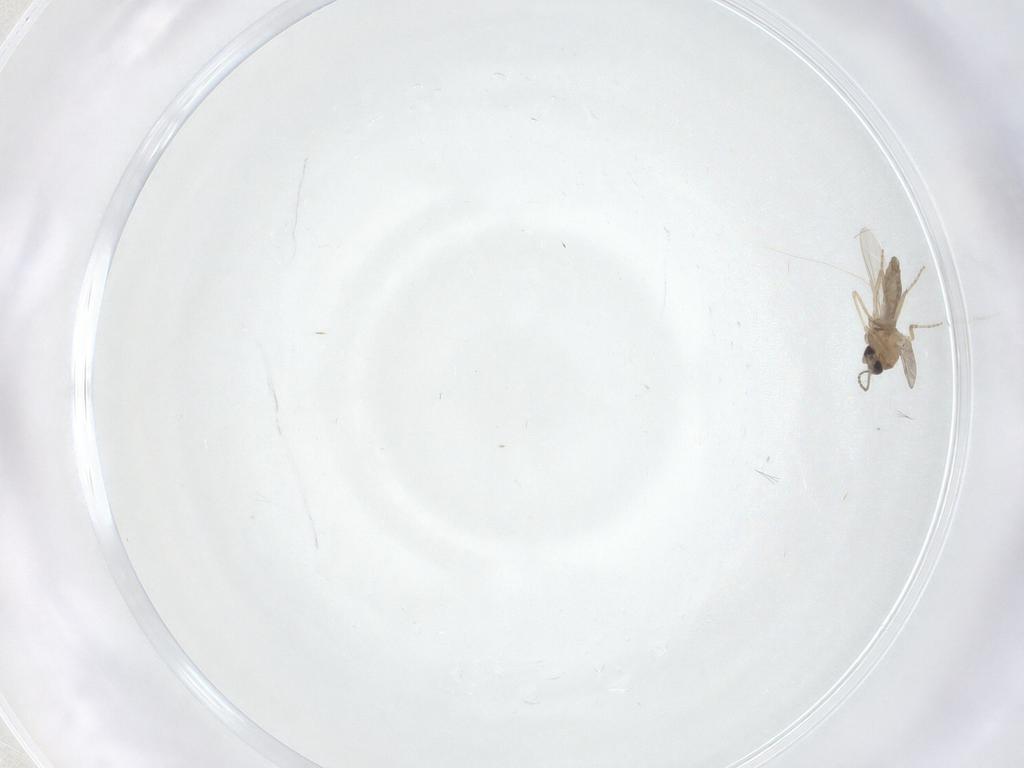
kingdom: Animalia
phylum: Arthropoda
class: Insecta
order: Diptera
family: Ceratopogonidae
